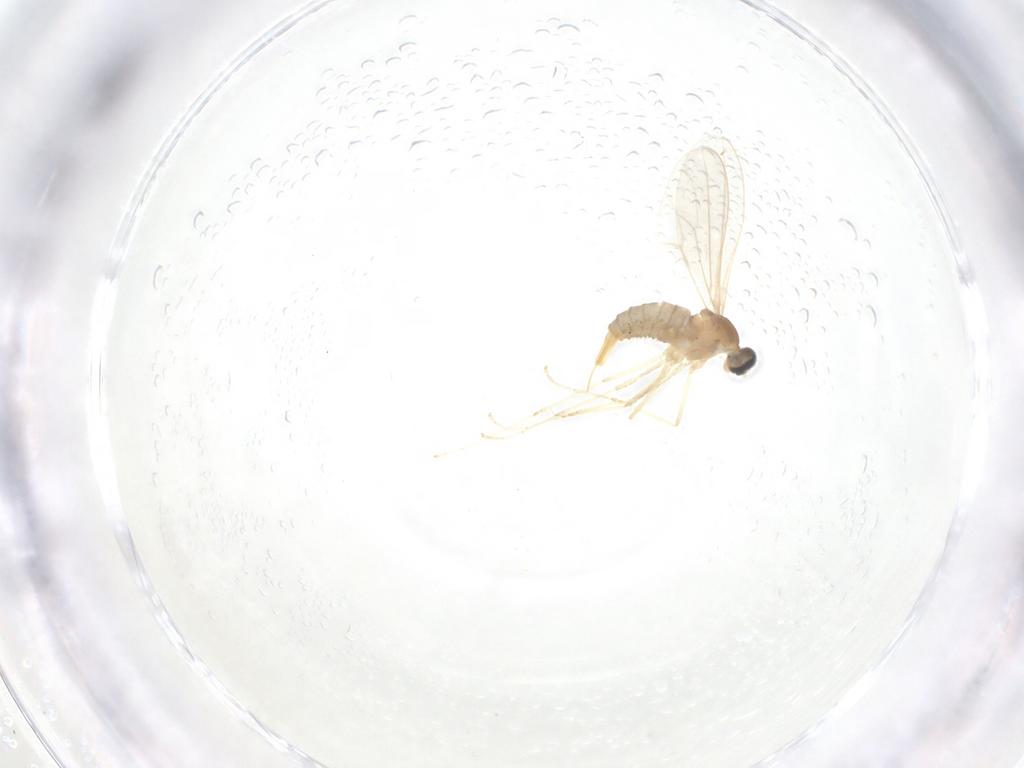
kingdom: Animalia
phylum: Arthropoda
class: Insecta
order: Diptera
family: Cecidomyiidae
